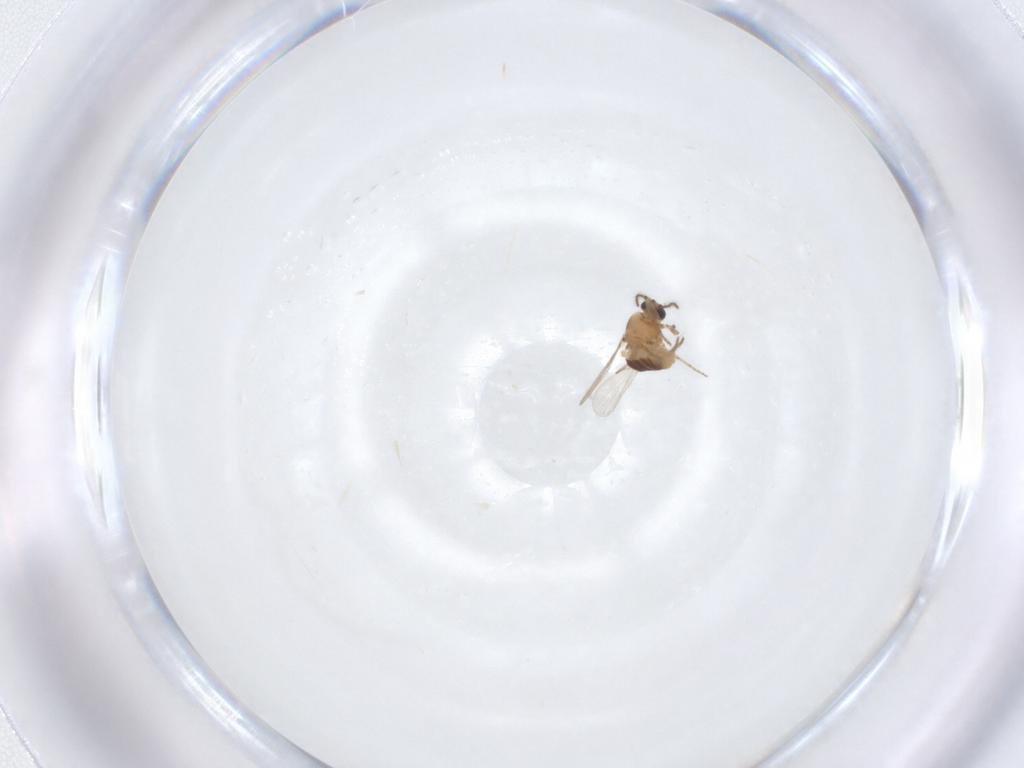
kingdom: Animalia
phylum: Arthropoda
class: Insecta
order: Diptera
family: Ceratopogonidae
